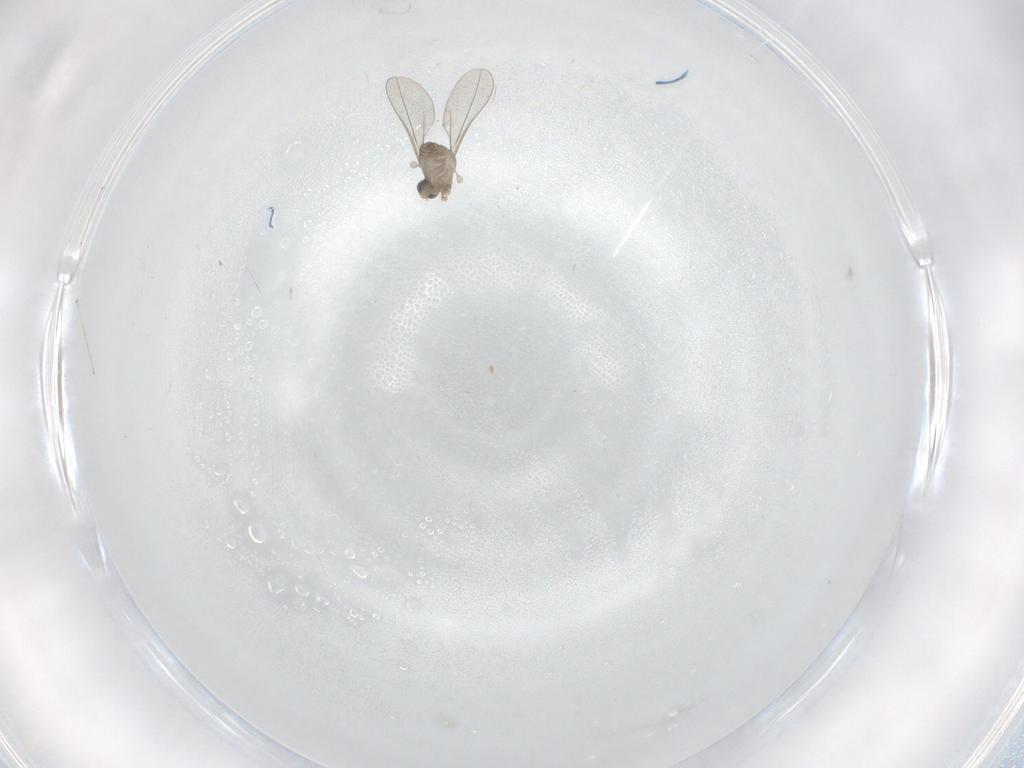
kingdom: Animalia
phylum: Arthropoda
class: Insecta
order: Diptera
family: Cecidomyiidae
